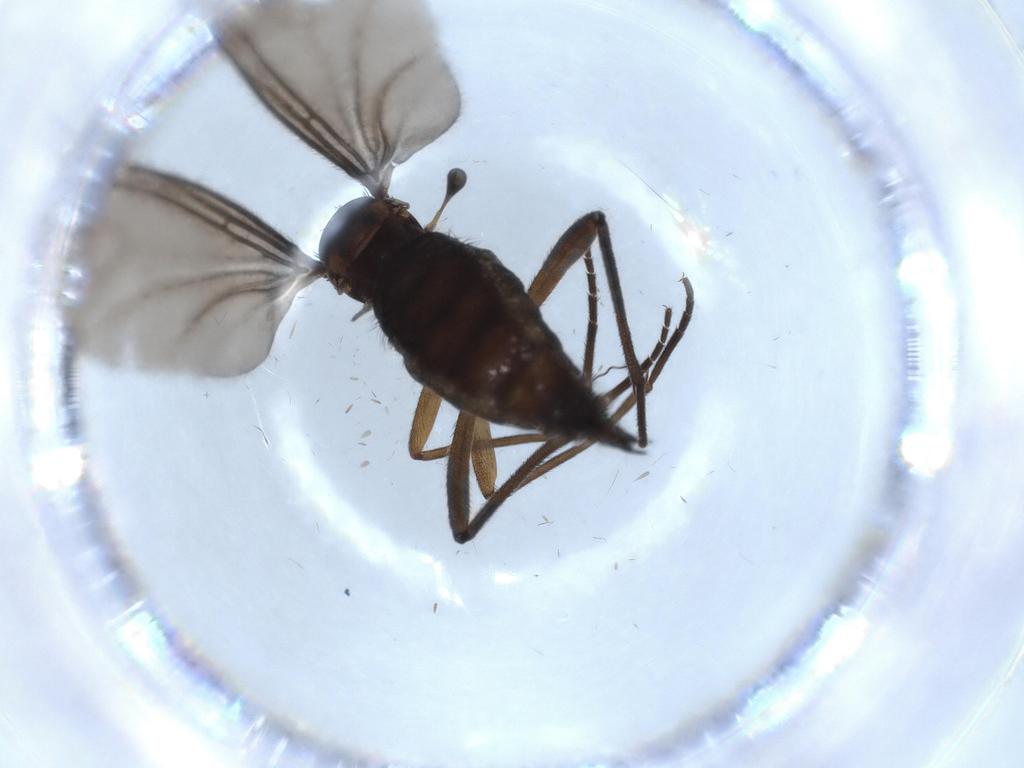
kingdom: Animalia
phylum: Arthropoda
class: Insecta
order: Diptera
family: Sciaridae
